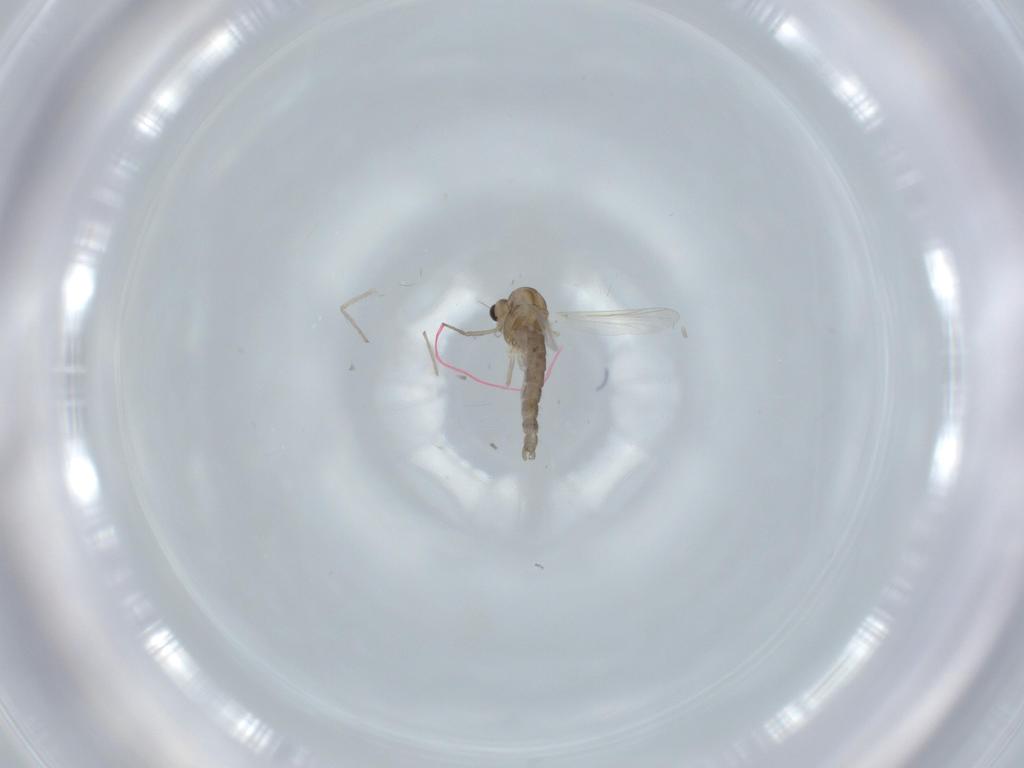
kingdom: Animalia
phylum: Arthropoda
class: Insecta
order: Diptera
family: Chironomidae
